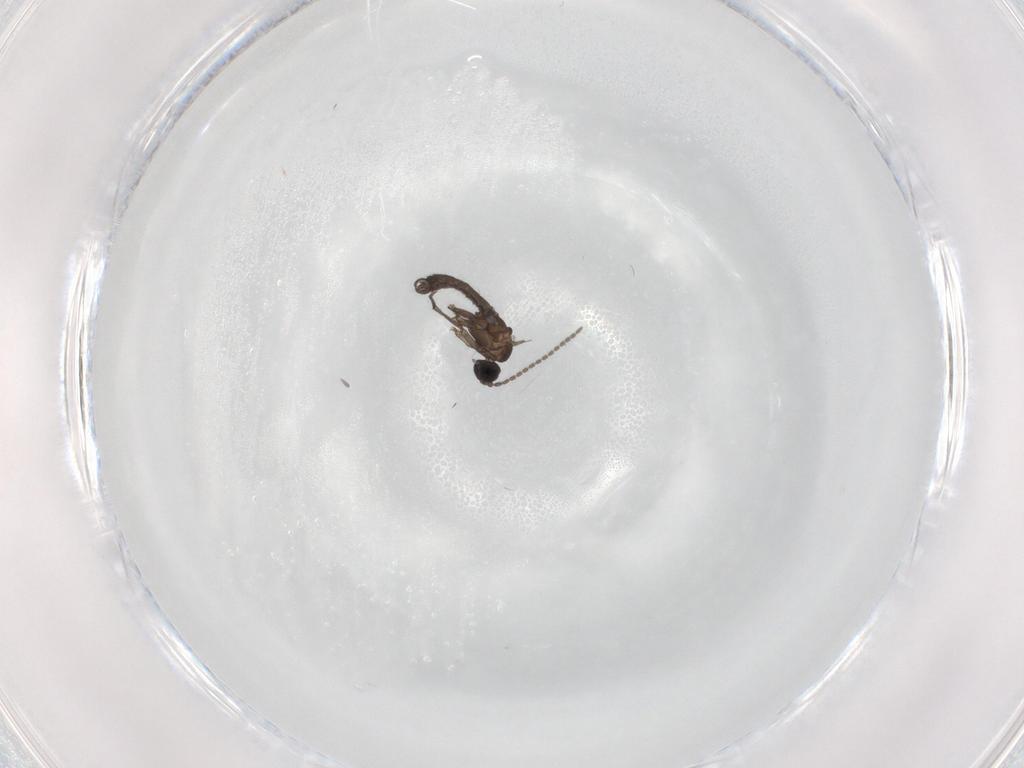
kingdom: Animalia
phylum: Arthropoda
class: Insecta
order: Diptera
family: Sciaridae
